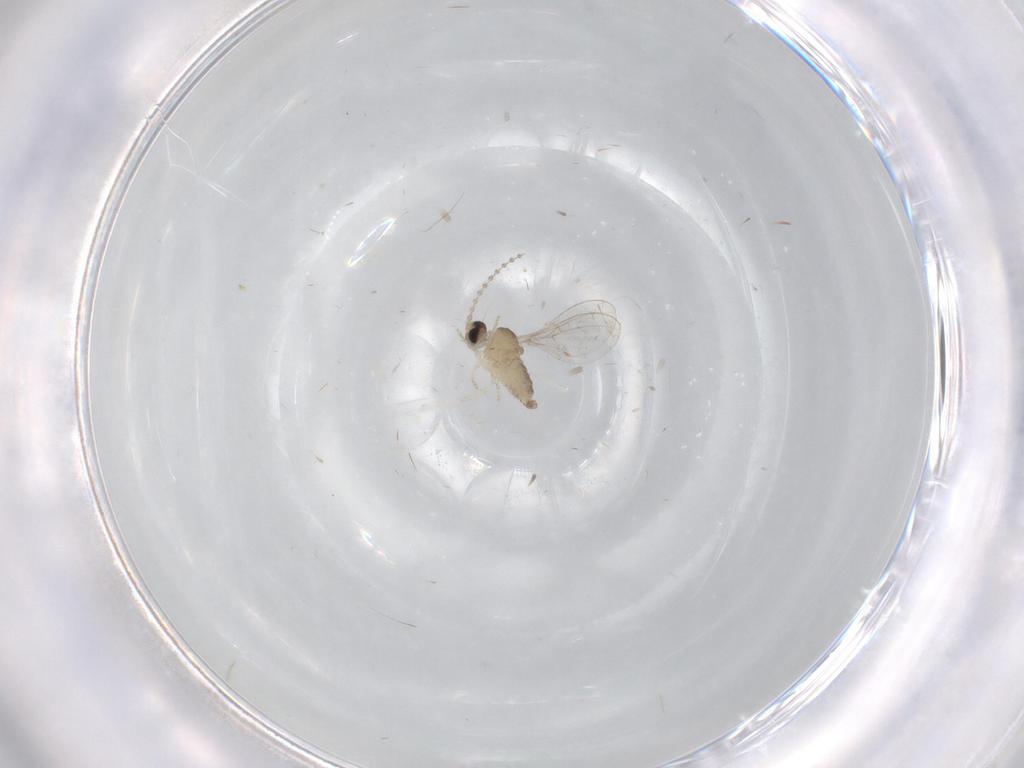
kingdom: Animalia
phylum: Arthropoda
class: Insecta
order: Diptera
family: Cecidomyiidae
